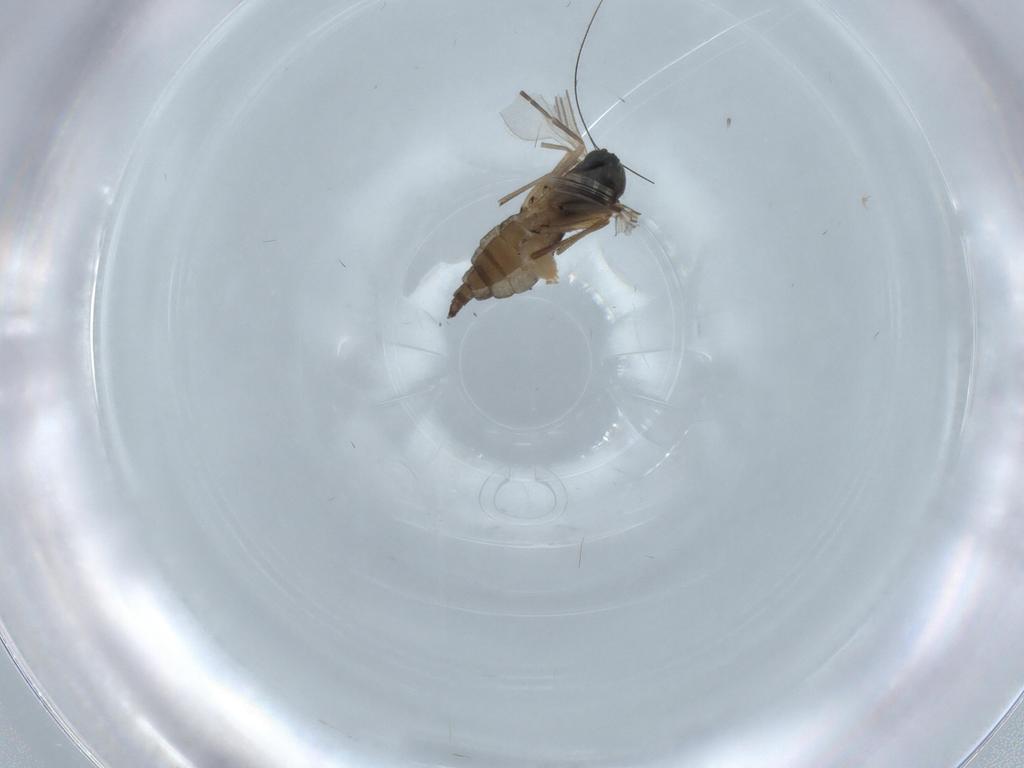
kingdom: Animalia
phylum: Arthropoda
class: Insecta
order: Diptera
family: Sciaridae
